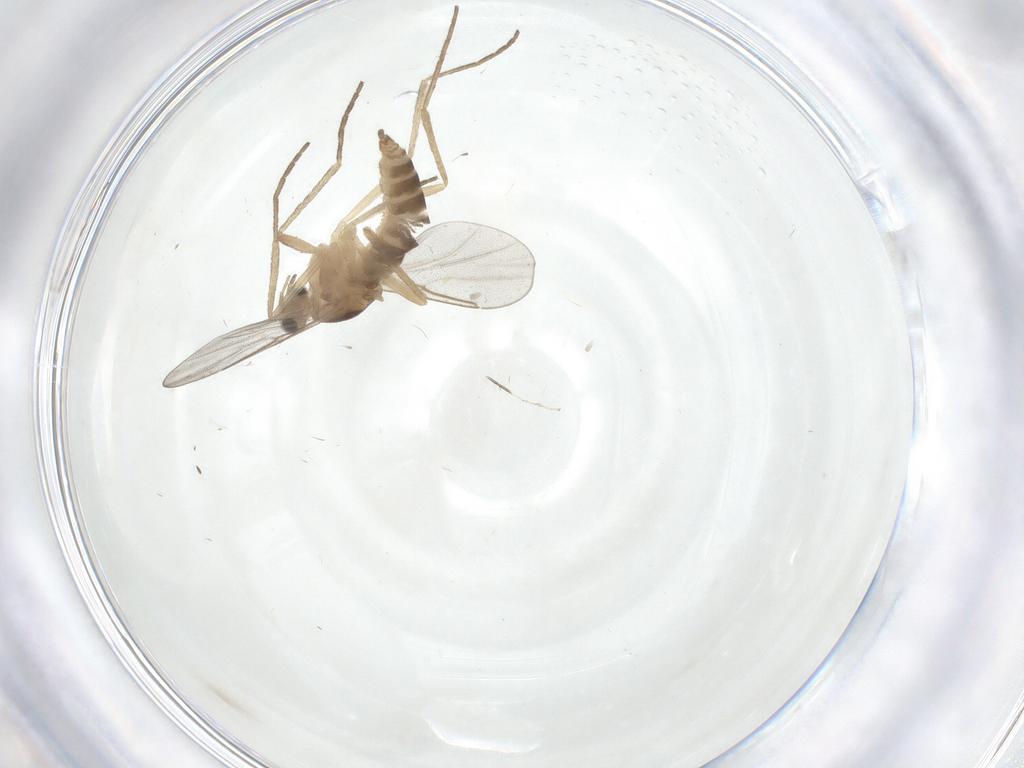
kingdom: Animalia
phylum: Arthropoda
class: Insecta
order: Diptera
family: Cecidomyiidae
